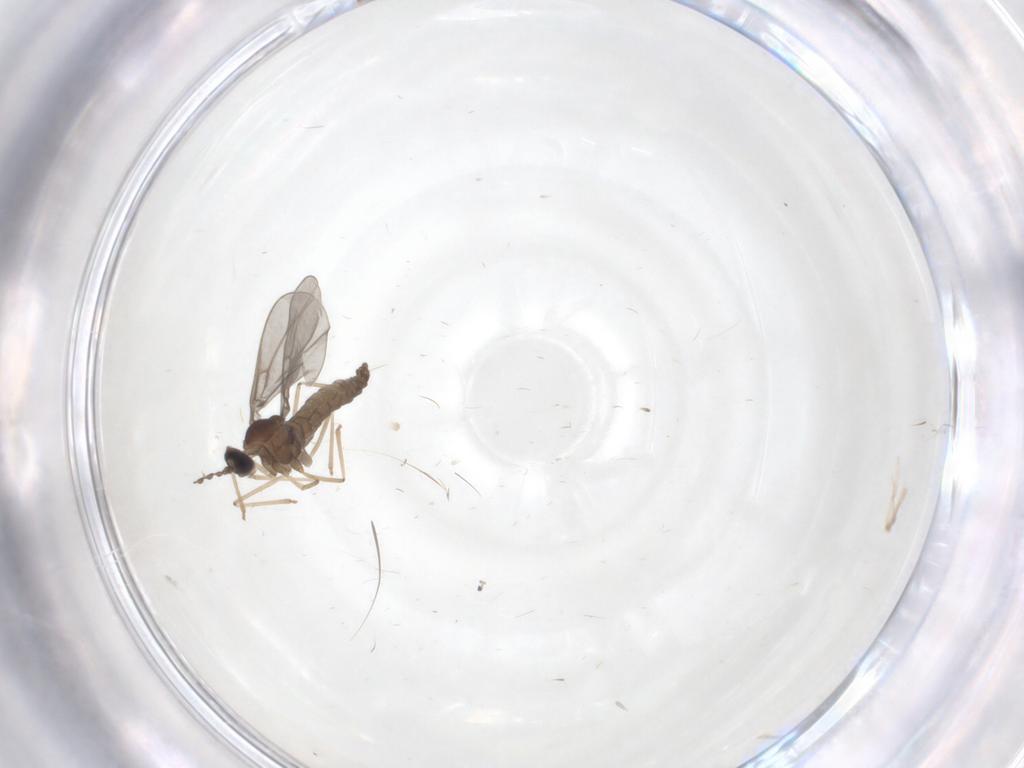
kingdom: Animalia
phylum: Arthropoda
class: Insecta
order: Diptera
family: Cecidomyiidae
